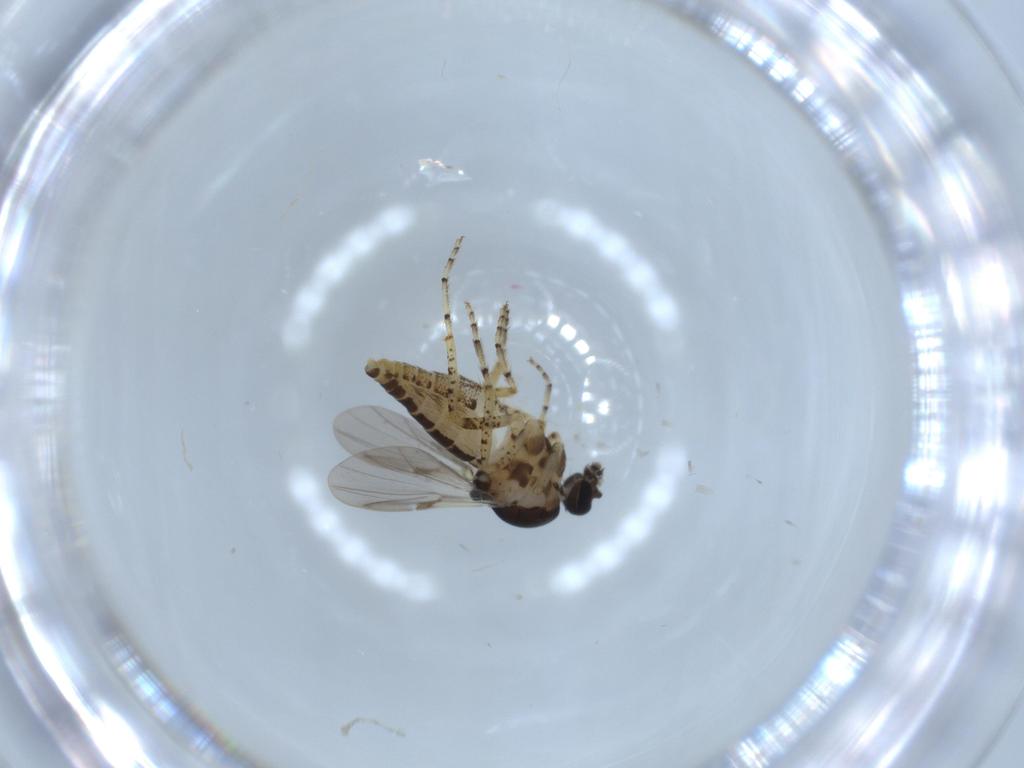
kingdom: Animalia
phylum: Arthropoda
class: Insecta
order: Diptera
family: Ceratopogonidae
